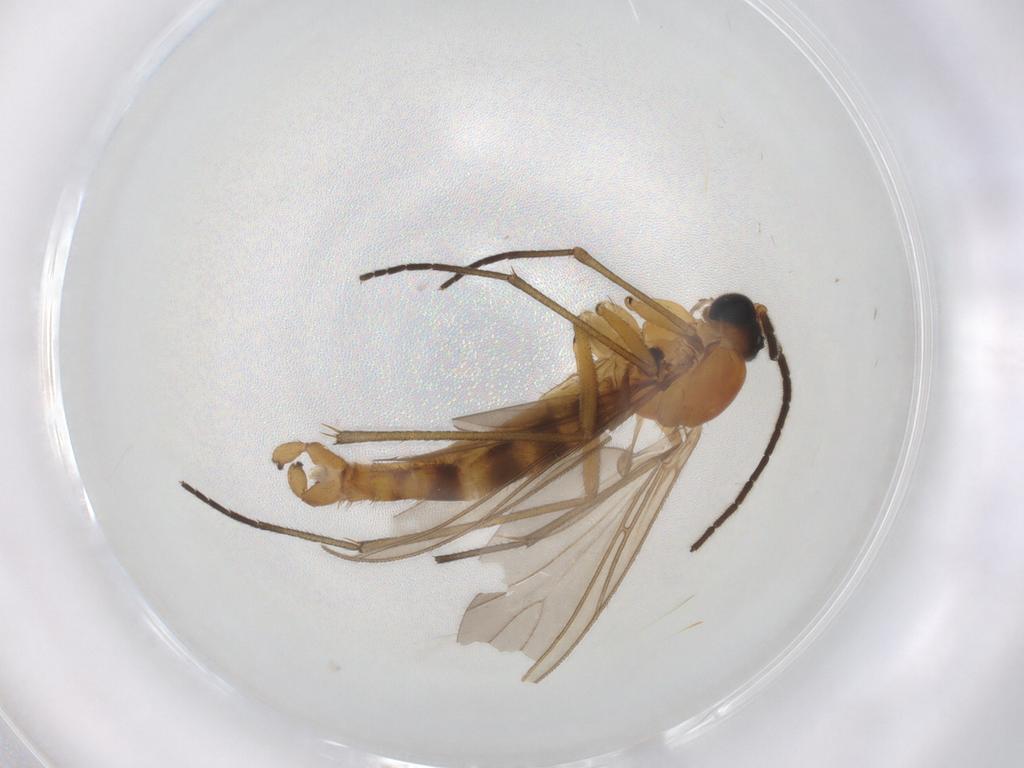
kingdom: Animalia
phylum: Arthropoda
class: Insecta
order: Diptera
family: Sciaridae
